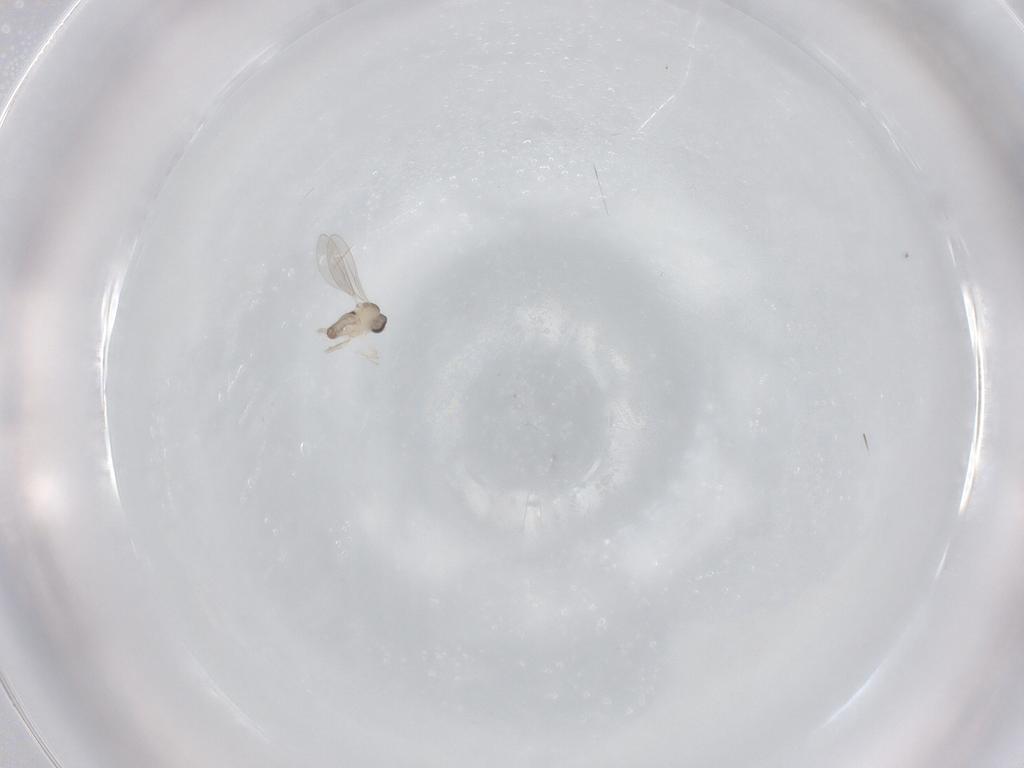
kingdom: Animalia
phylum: Arthropoda
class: Insecta
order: Diptera
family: Cecidomyiidae
